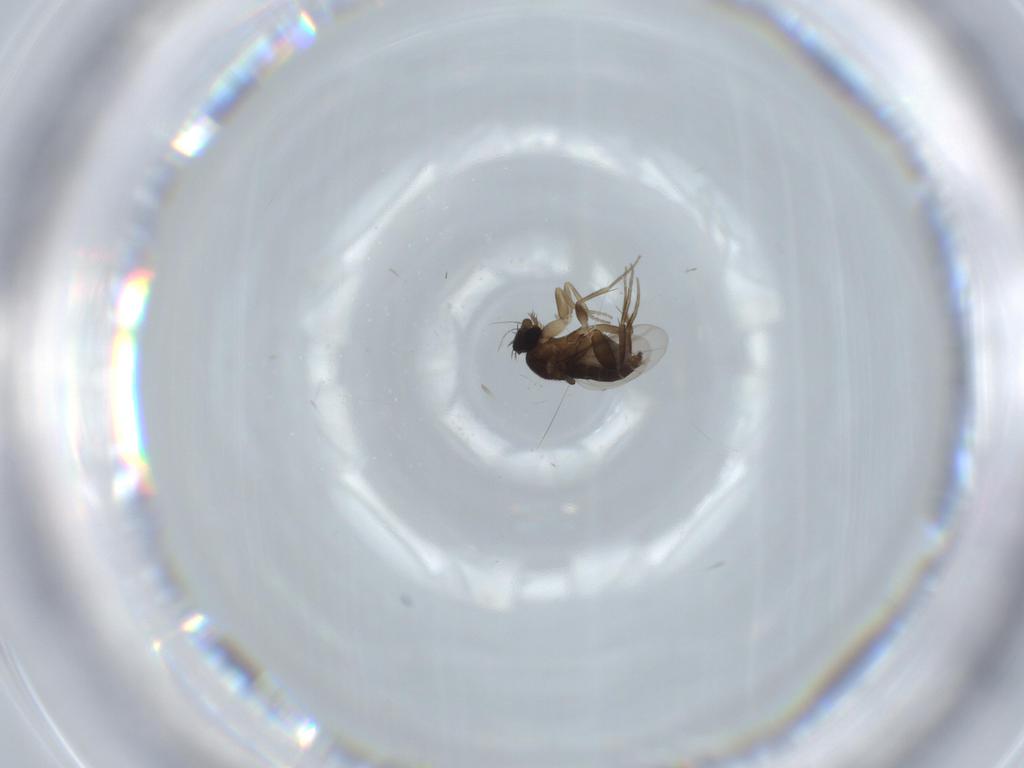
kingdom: Animalia
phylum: Arthropoda
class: Insecta
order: Diptera
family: Phoridae
